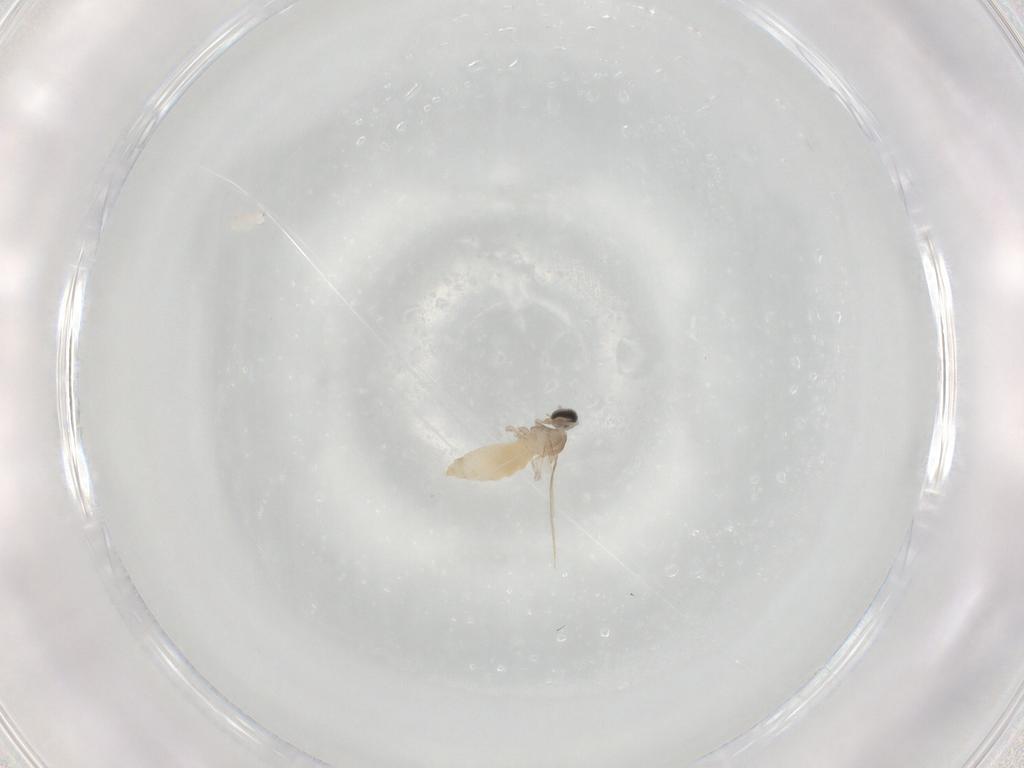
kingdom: Animalia
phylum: Arthropoda
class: Insecta
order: Diptera
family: Cecidomyiidae
